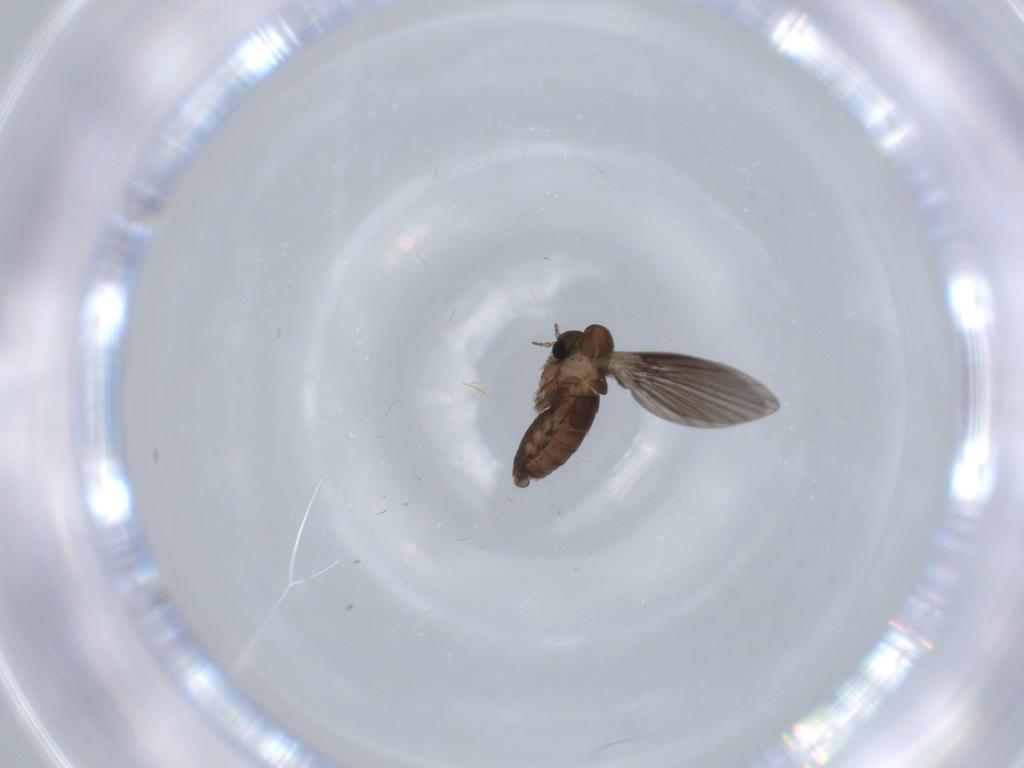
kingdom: Animalia
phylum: Arthropoda
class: Insecta
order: Diptera
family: Psychodidae
